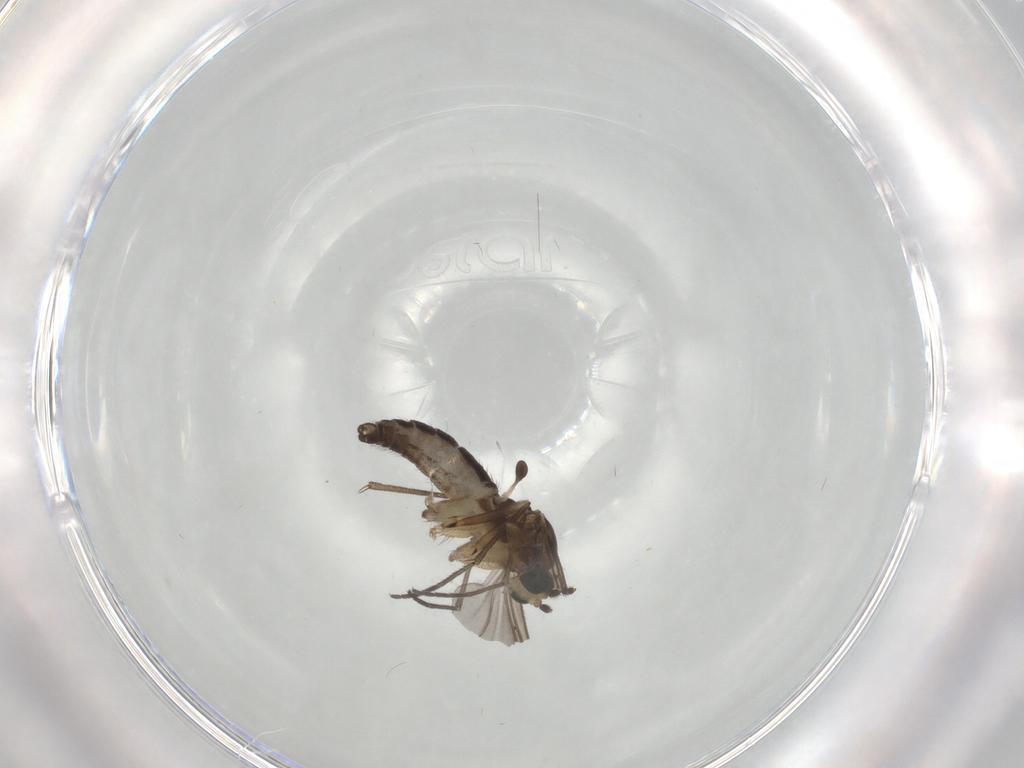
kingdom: Animalia
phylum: Arthropoda
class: Insecta
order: Diptera
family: Sciaridae
